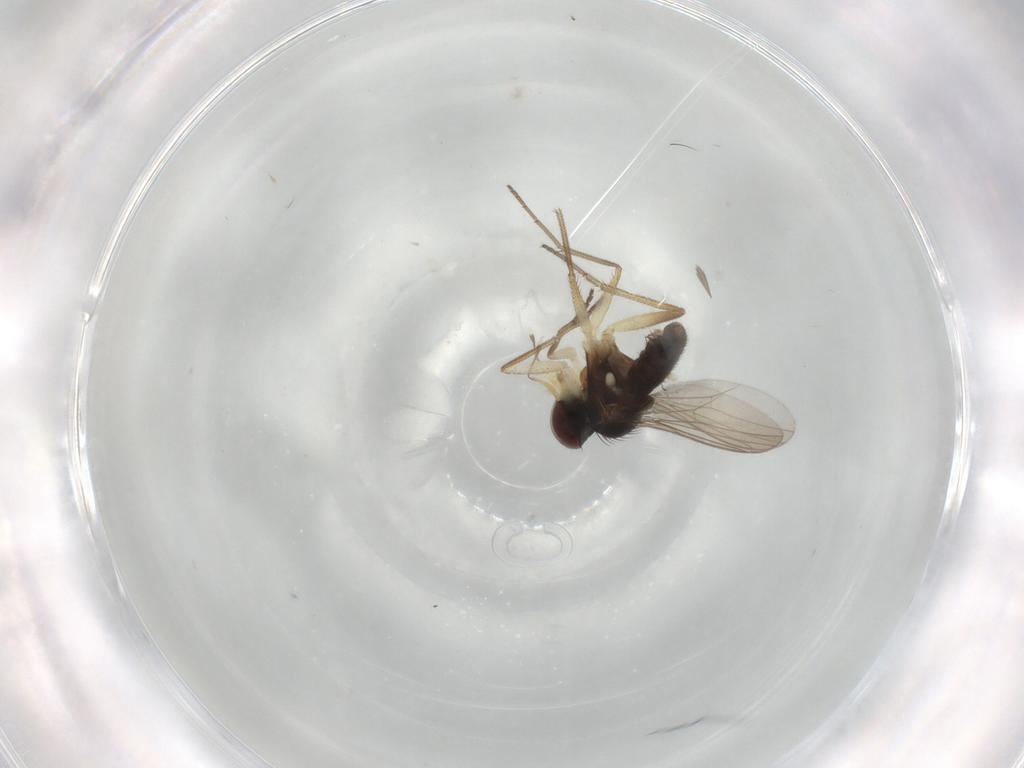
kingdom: Animalia
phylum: Arthropoda
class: Insecta
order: Diptera
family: Dolichopodidae
